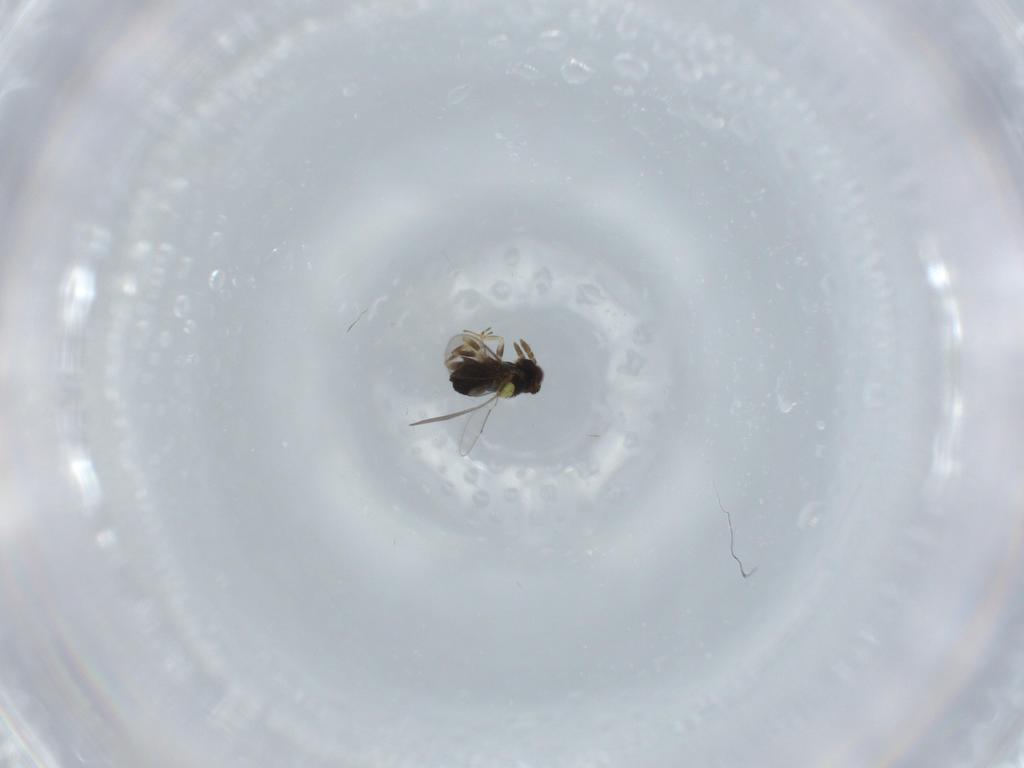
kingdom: Animalia
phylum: Arthropoda
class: Insecta
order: Hymenoptera
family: Aphelinidae
